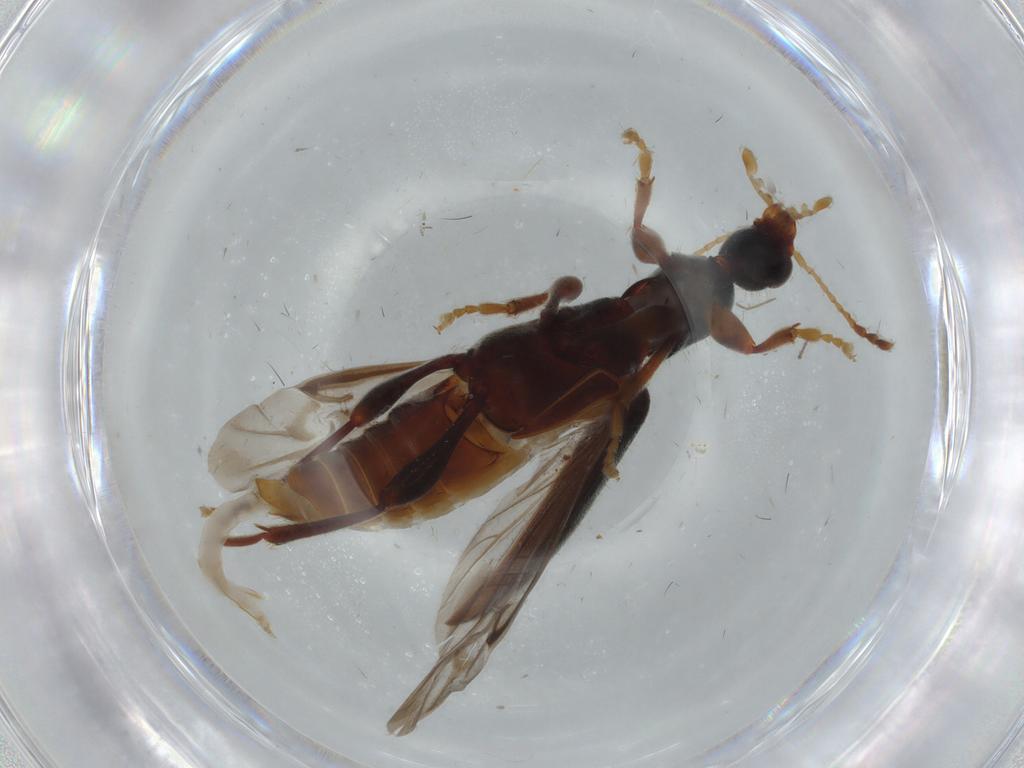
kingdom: Animalia
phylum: Arthropoda
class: Insecta
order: Coleoptera
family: Anthicidae
